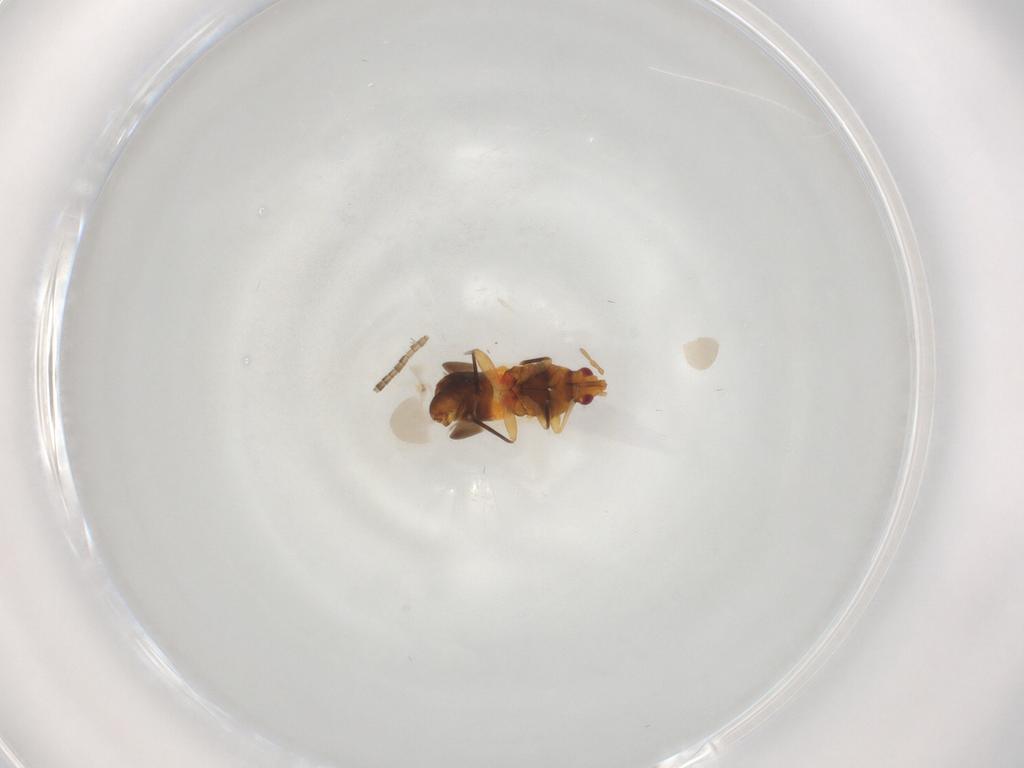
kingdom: Animalia
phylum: Arthropoda
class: Insecta
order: Hemiptera
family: Anthocoridae
